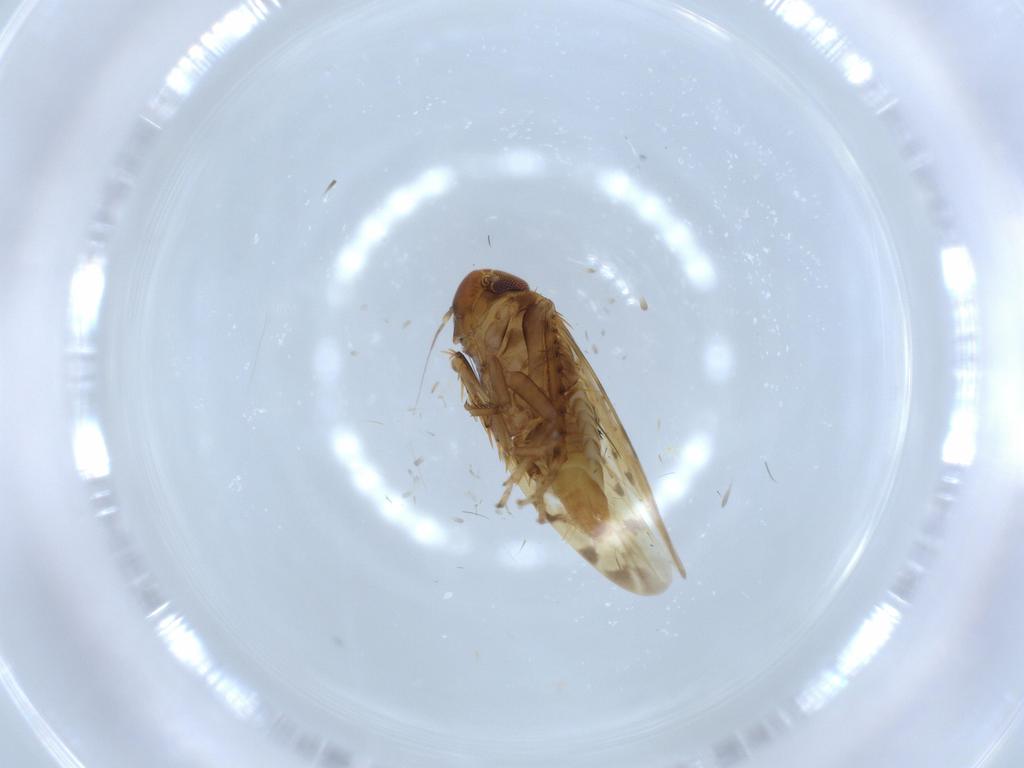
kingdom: Animalia
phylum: Arthropoda
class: Insecta
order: Hemiptera
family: Cicadellidae
